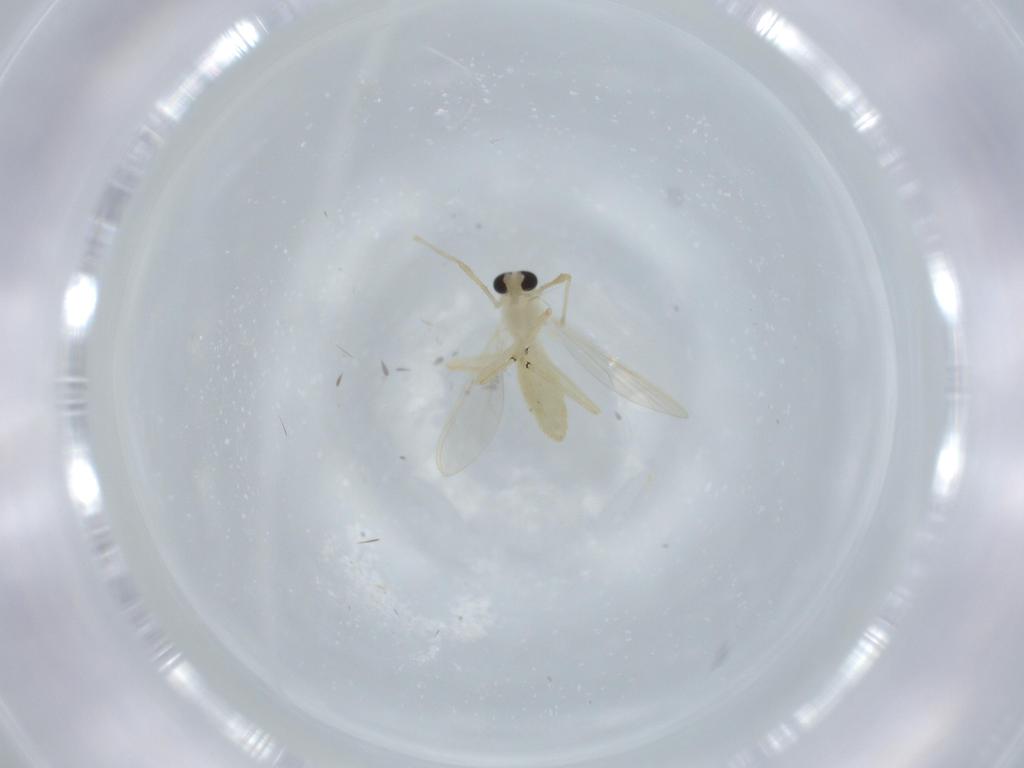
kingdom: Animalia
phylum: Arthropoda
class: Insecta
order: Diptera
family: Chironomidae
